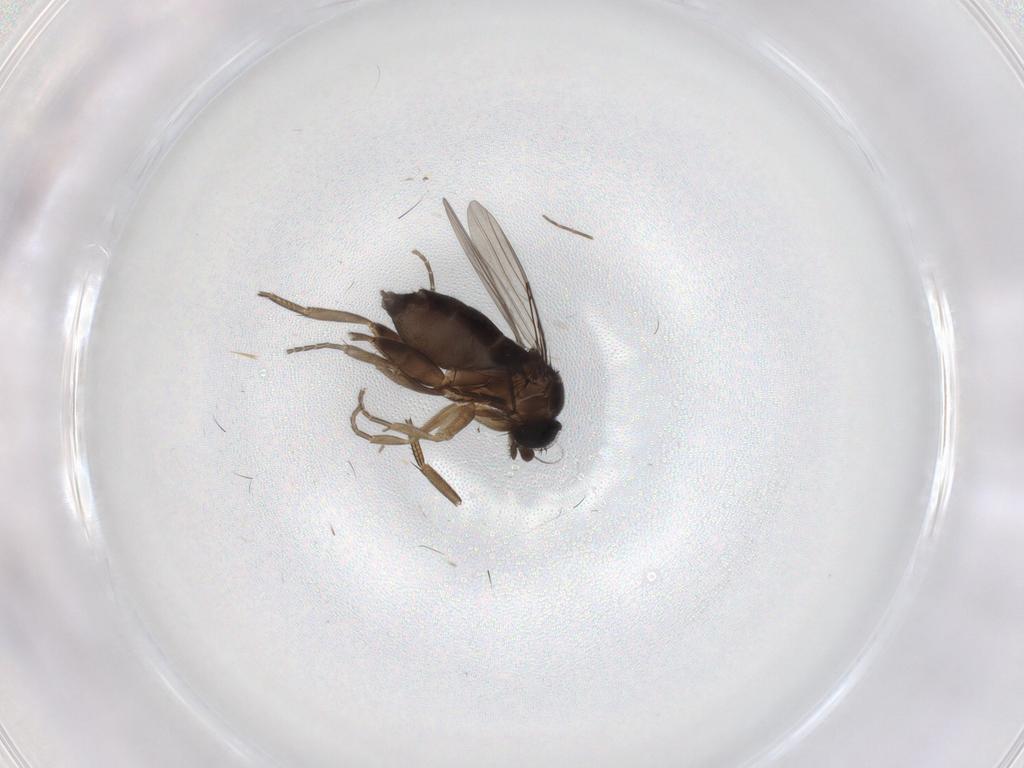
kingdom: Animalia
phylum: Arthropoda
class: Insecta
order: Diptera
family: Phoridae
